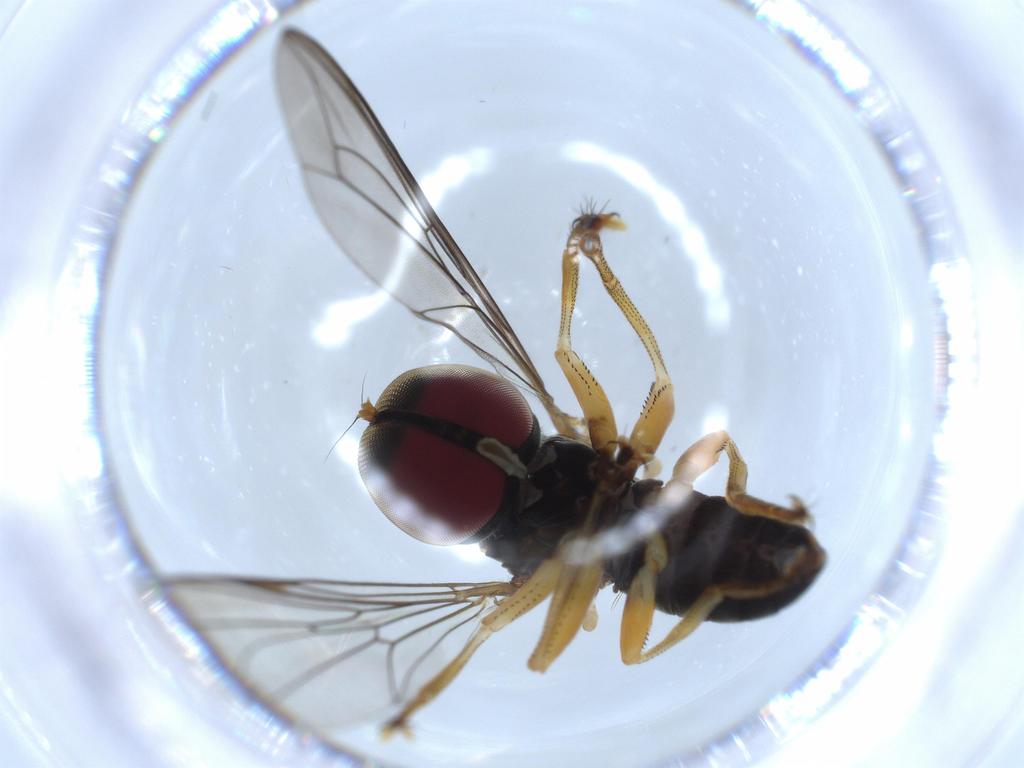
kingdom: Animalia
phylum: Arthropoda
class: Insecta
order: Diptera
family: Pipunculidae
